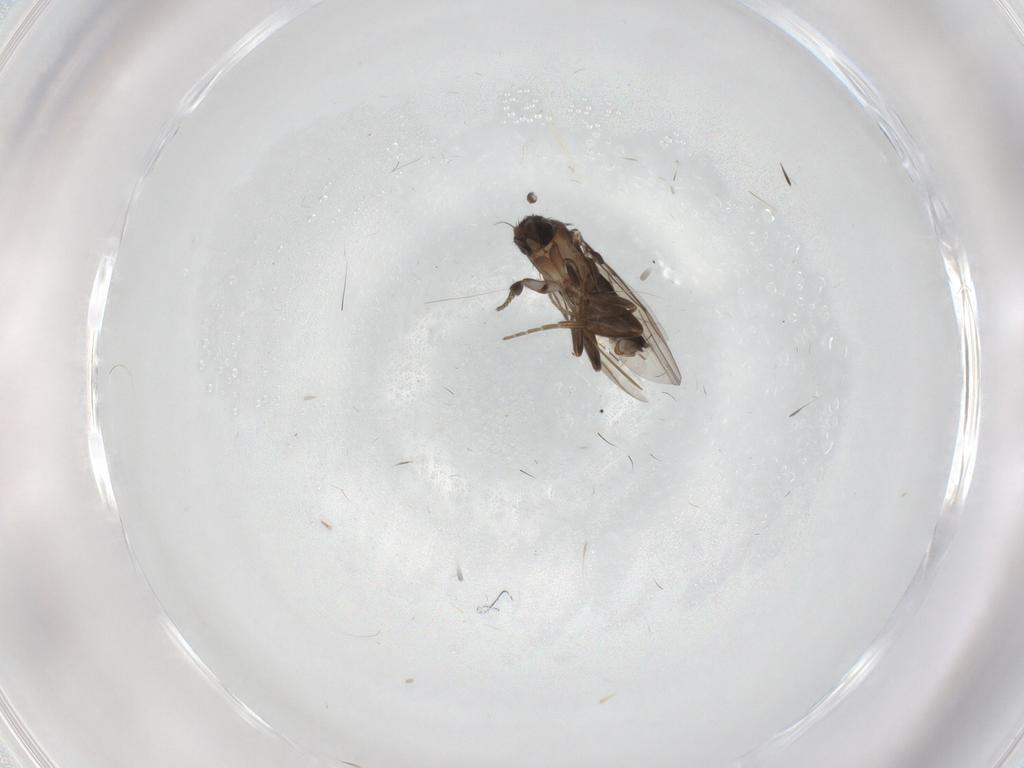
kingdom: Animalia
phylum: Arthropoda
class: Insecta
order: Diptera
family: Phoridae
